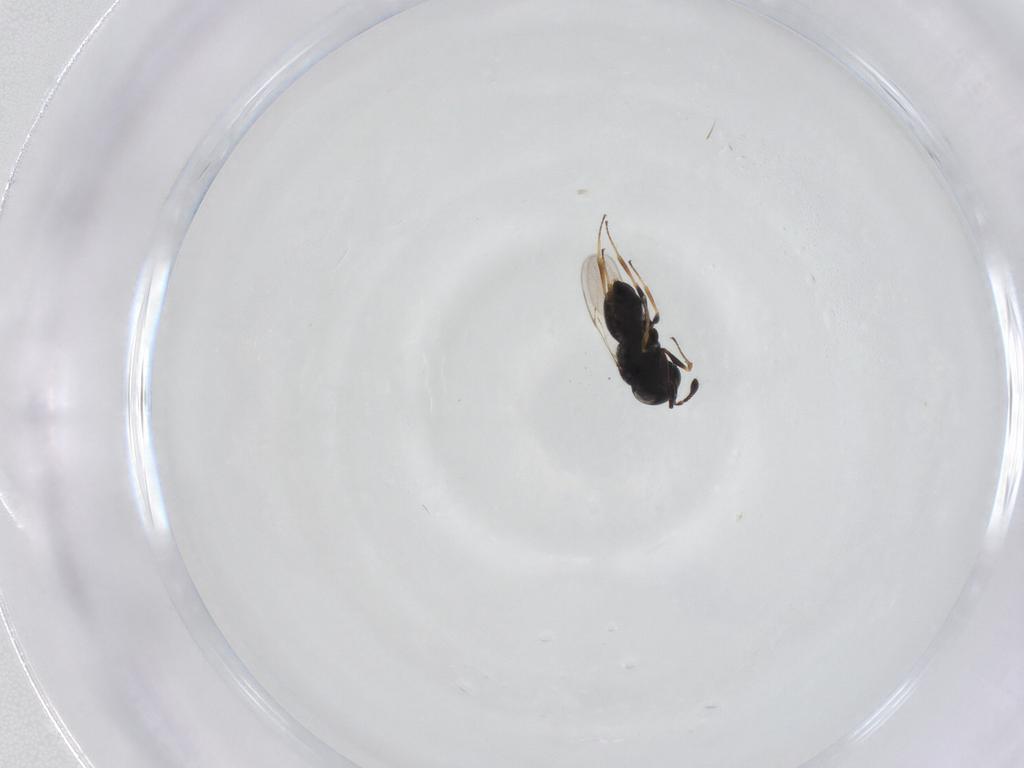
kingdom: Animalia
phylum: Arthropoda
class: Insecta
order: Hymenoptera
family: Scelionidae
